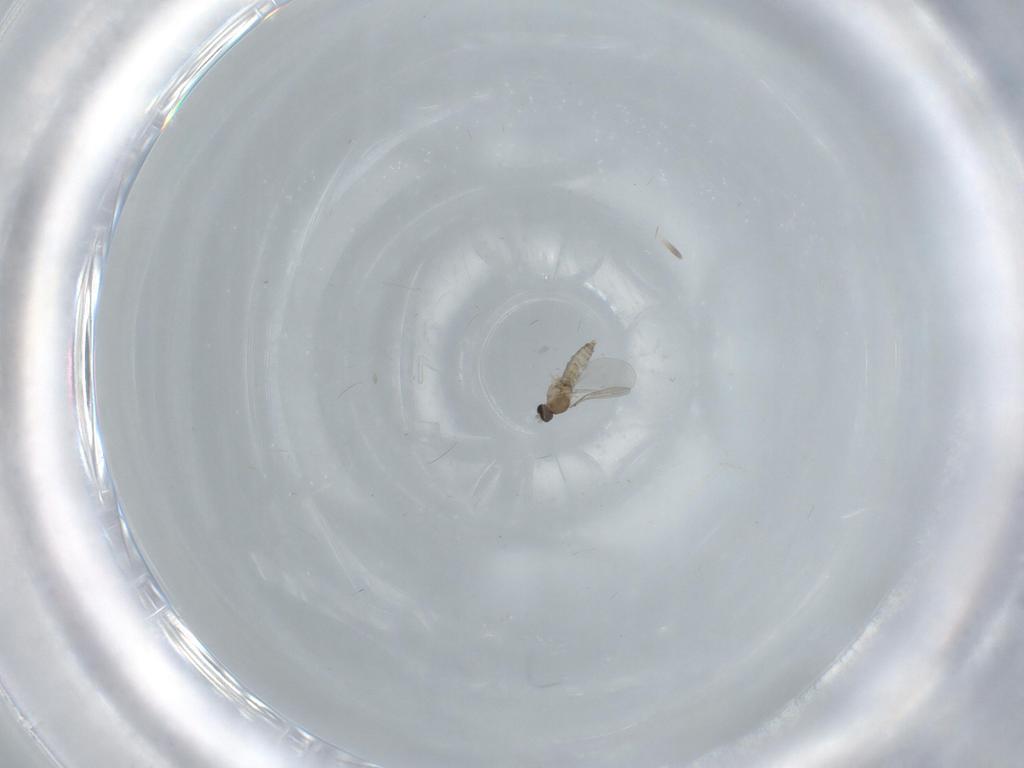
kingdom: Animalia
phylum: Arthropoda
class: Insecta
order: Diptera
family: Cecidomyiidae
